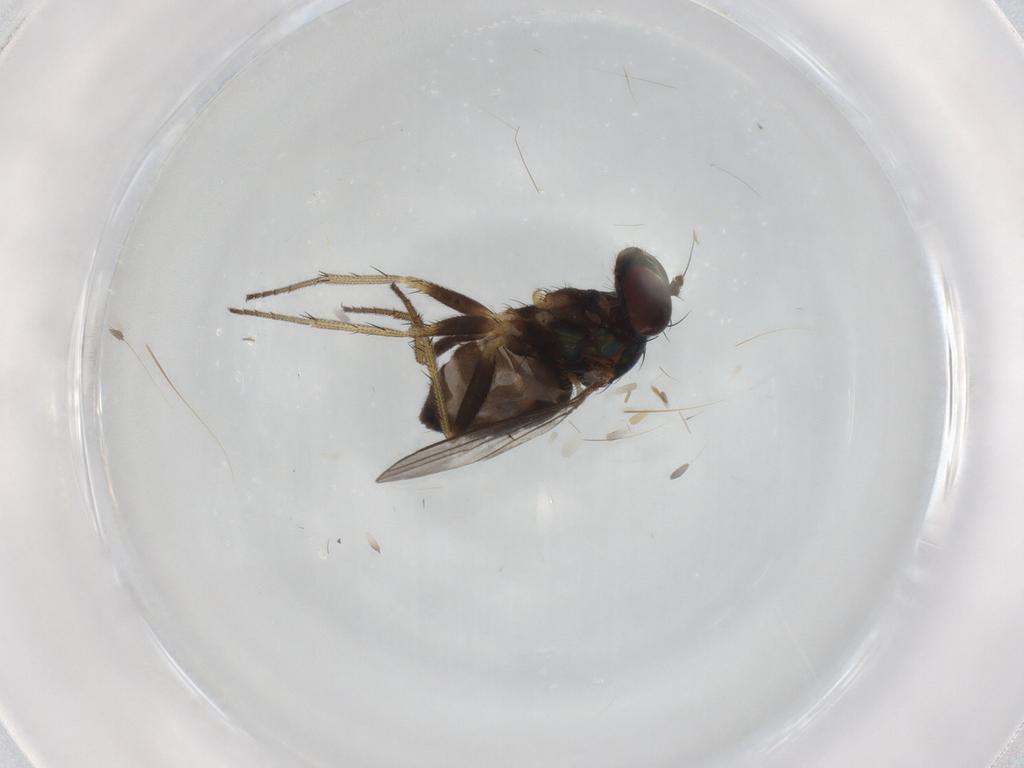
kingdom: Animalia
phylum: Arthropoda
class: Insecta
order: Diptera
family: Dolichopodidae
